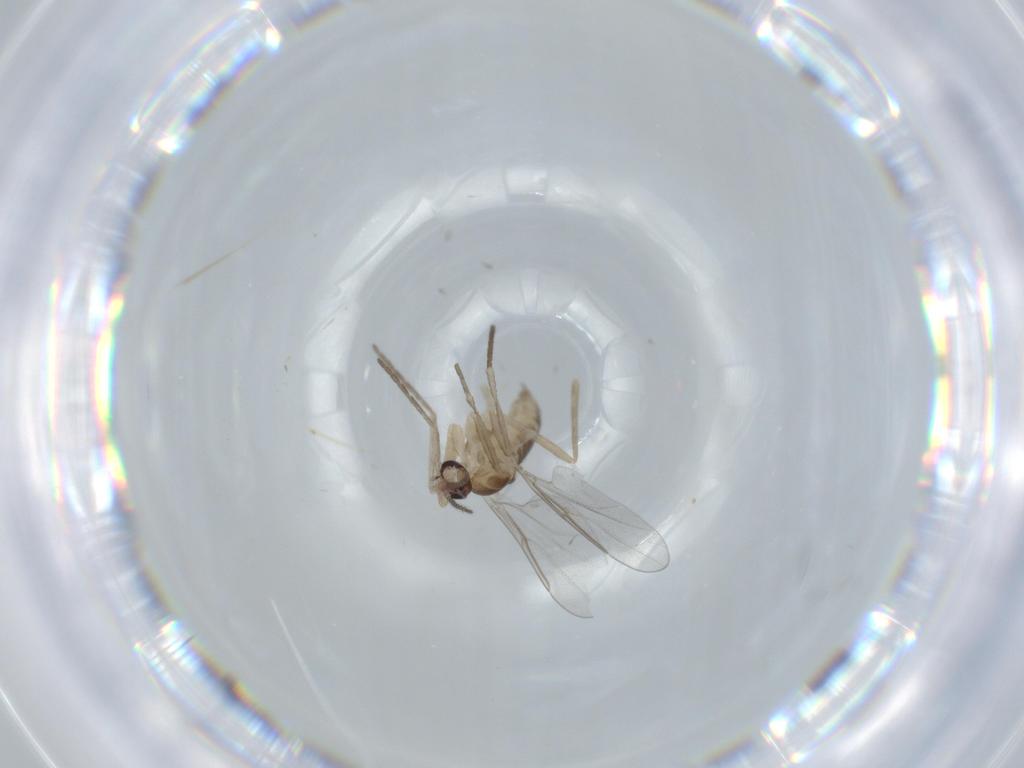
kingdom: Animalia
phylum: Arthropoda
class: Insecta
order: Diptera
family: Cecidomyiidae
